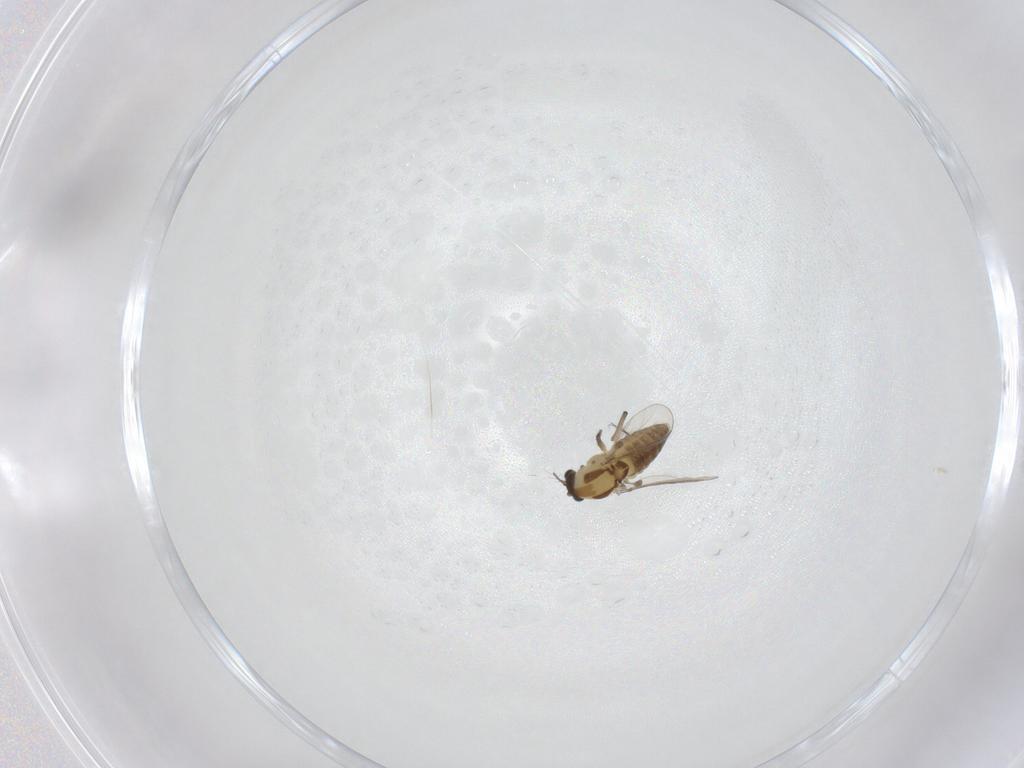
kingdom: Animalia
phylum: Arthropoda
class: Insecta
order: Diptera
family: Chironomidae
